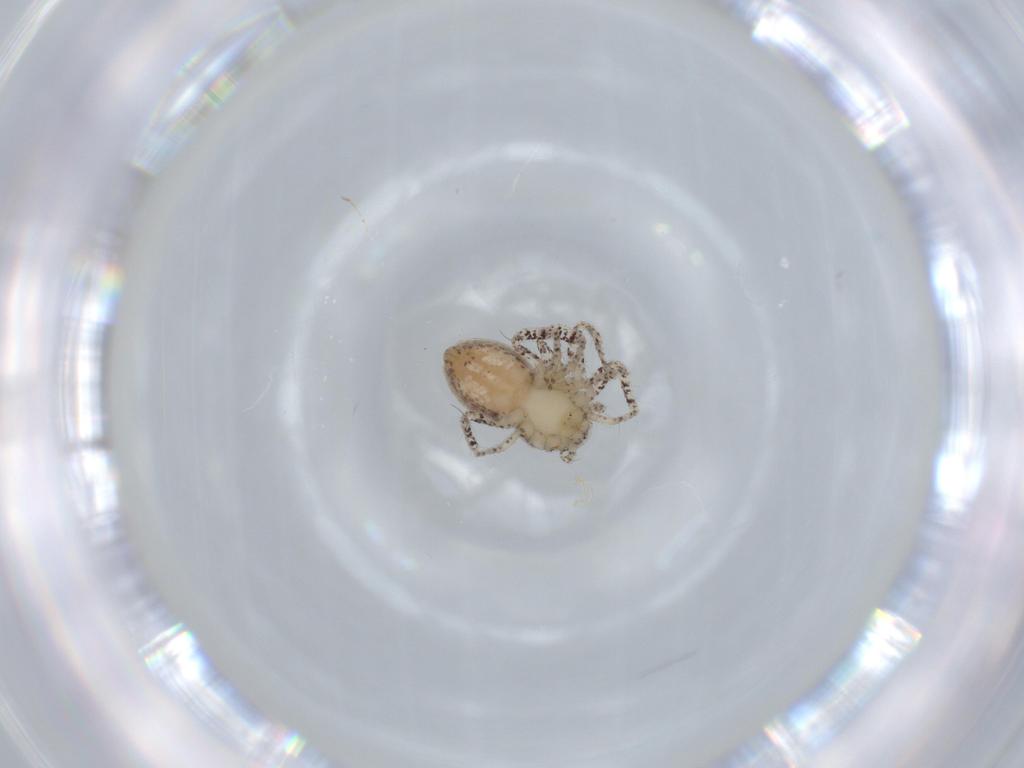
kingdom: Animalia
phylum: Arthropoda
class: Arachnida
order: Araneae
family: Philodromidae
